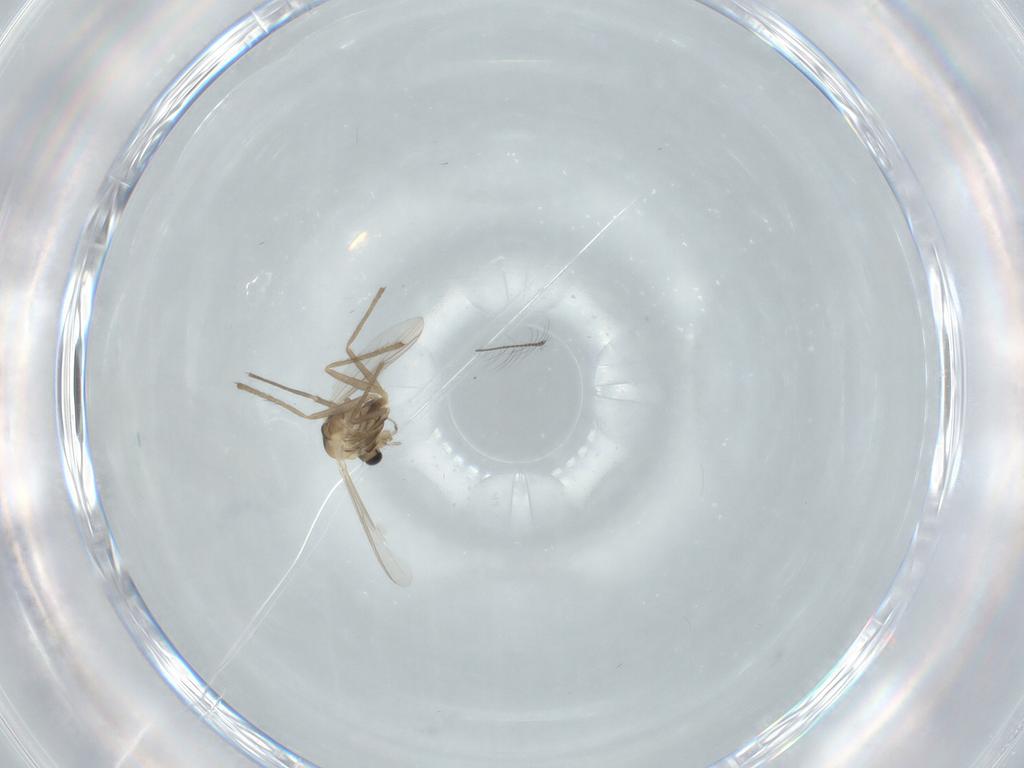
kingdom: Animalia
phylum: Arthropoda
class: Insecta
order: Diptera
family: Chironomidae
